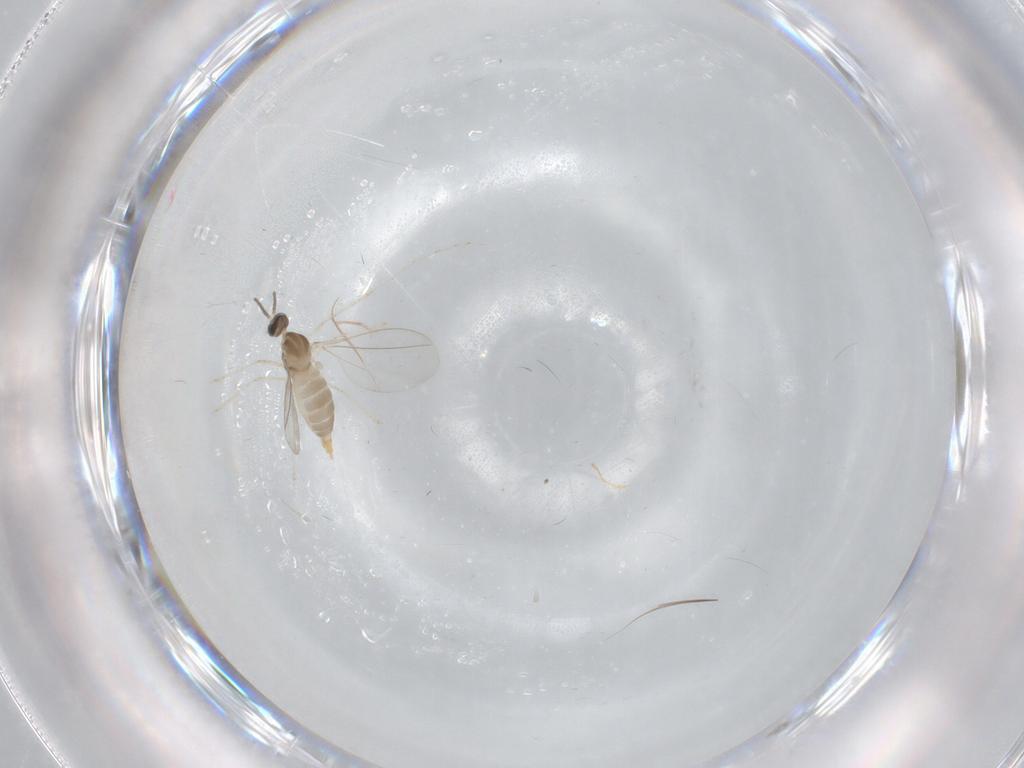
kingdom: Animalia
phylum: Arthropoda
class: Insecta
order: Diptera
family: Cecidomyiidae
